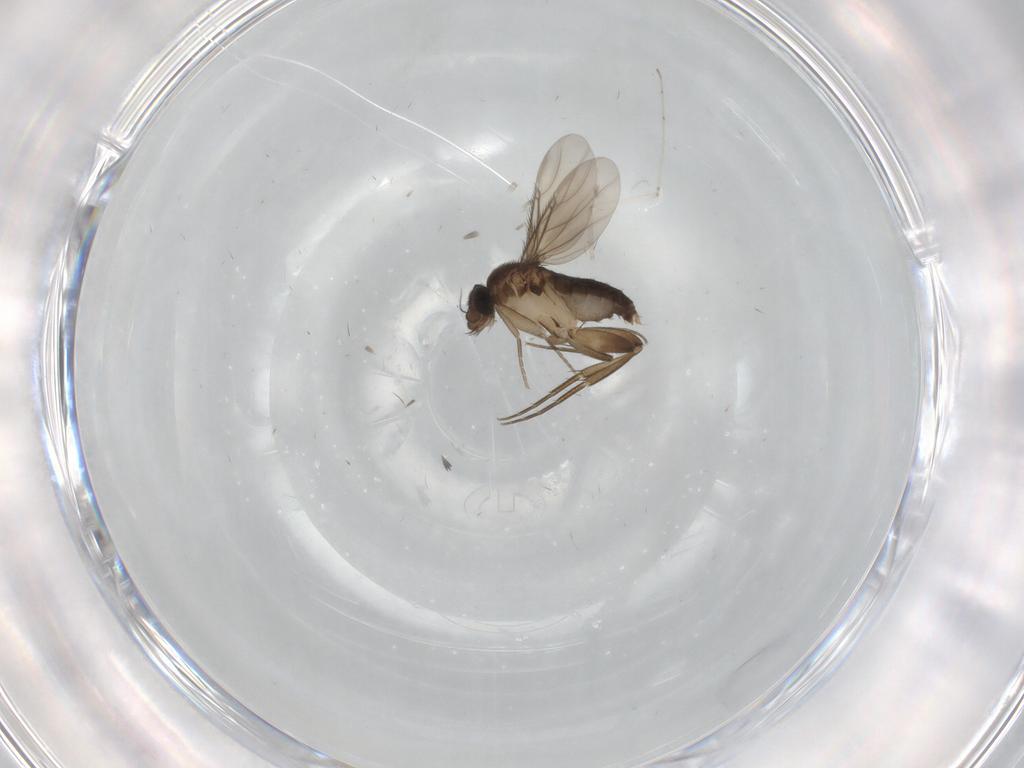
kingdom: Animalia
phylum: Arthropoda
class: Insecta
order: Diptera
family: Mycetophilidae
